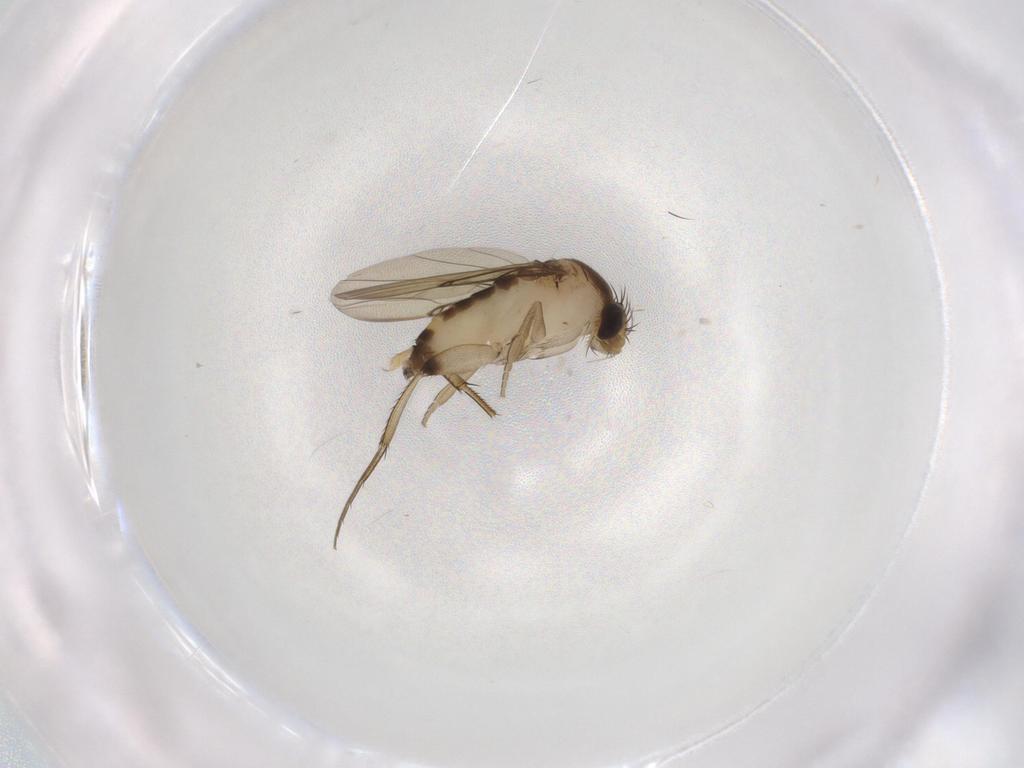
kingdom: Animalia
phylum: Arthropoda
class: Insecta
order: Diptera
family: Phoridae
